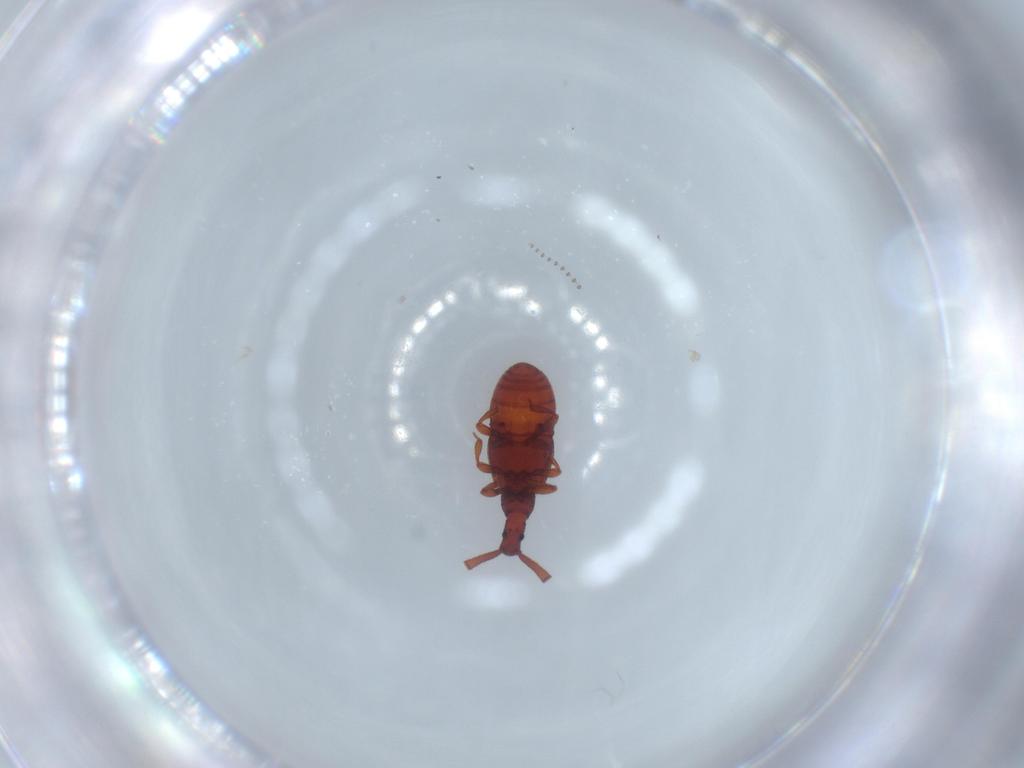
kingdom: Animalia
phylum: Arthropoda
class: Insecta
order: Coleoptera
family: Staphylinidae
